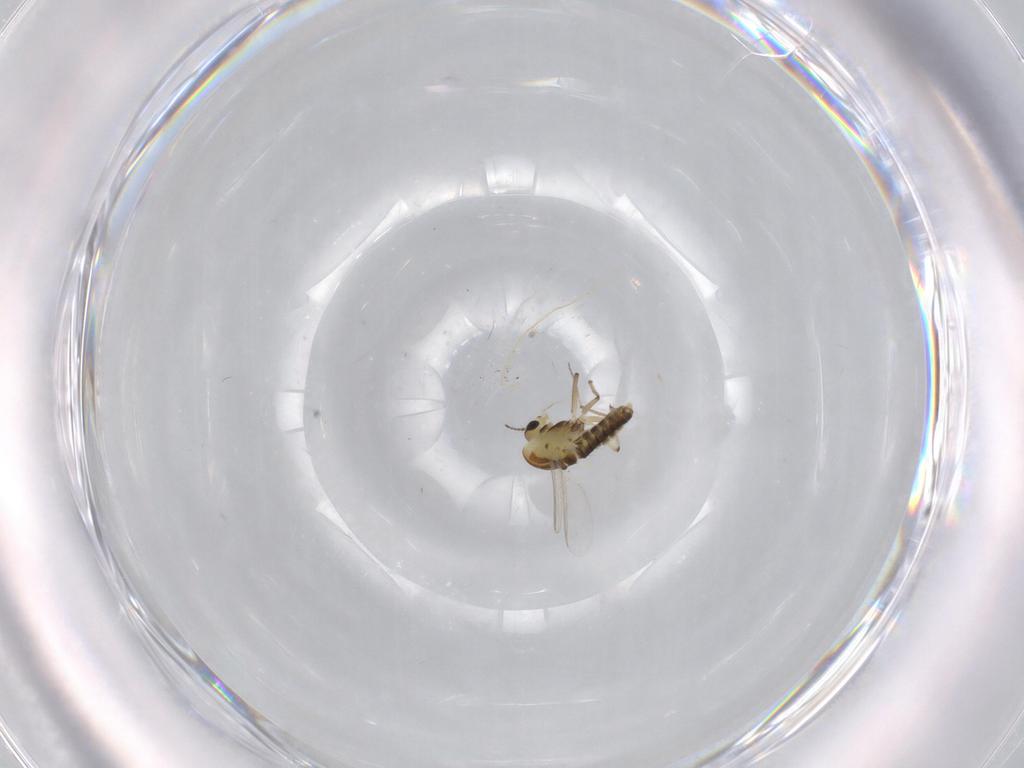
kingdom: Animalia
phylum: Arthropoda
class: Insecta
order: Diptera
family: Chironomidae
